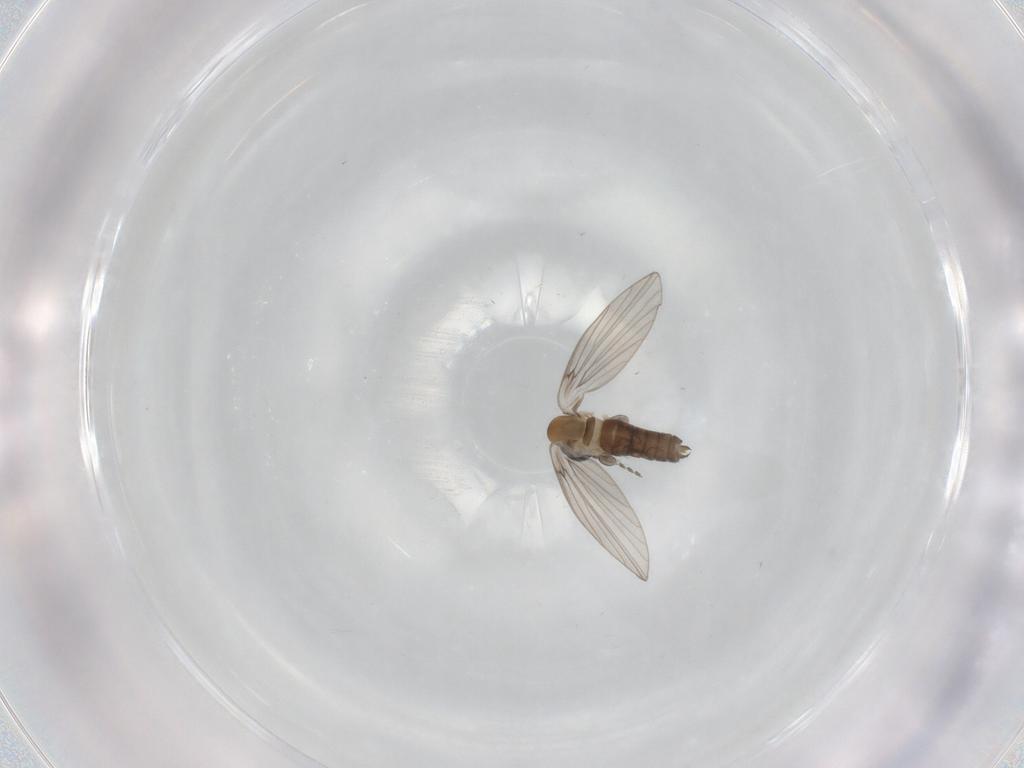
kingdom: Animalia
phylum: Arthropoda
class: Insecta
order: Diptera
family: Psychodidae
